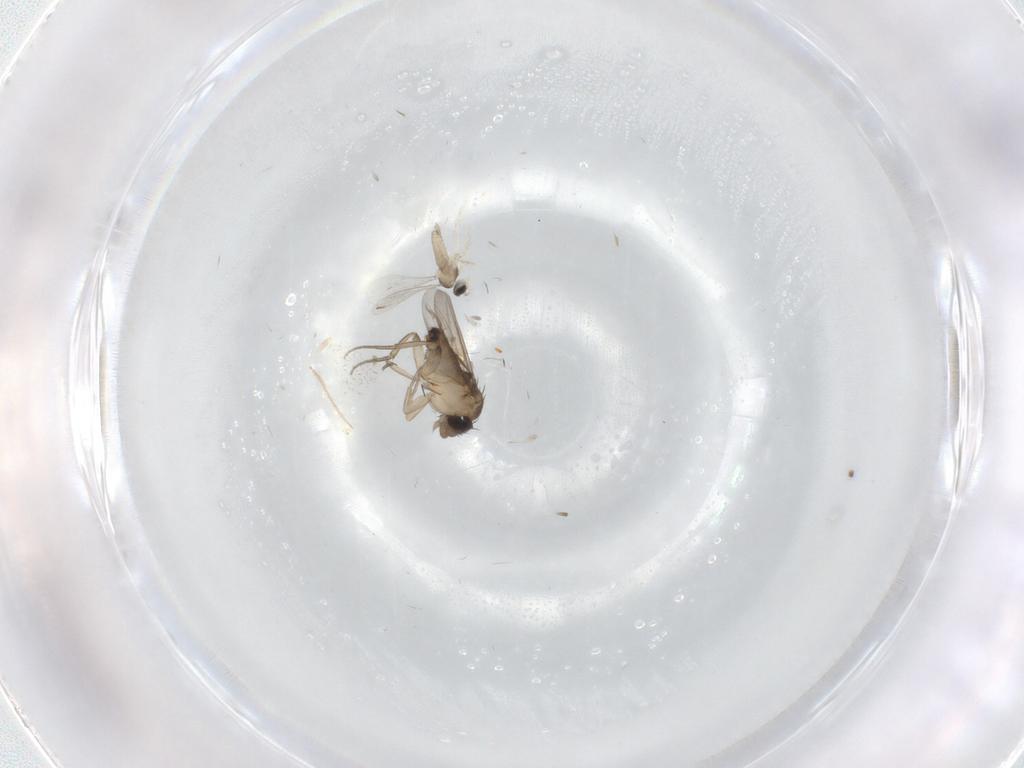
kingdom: Animalia
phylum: Arthropoda
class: Insecta
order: Diptera
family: Phoridae
